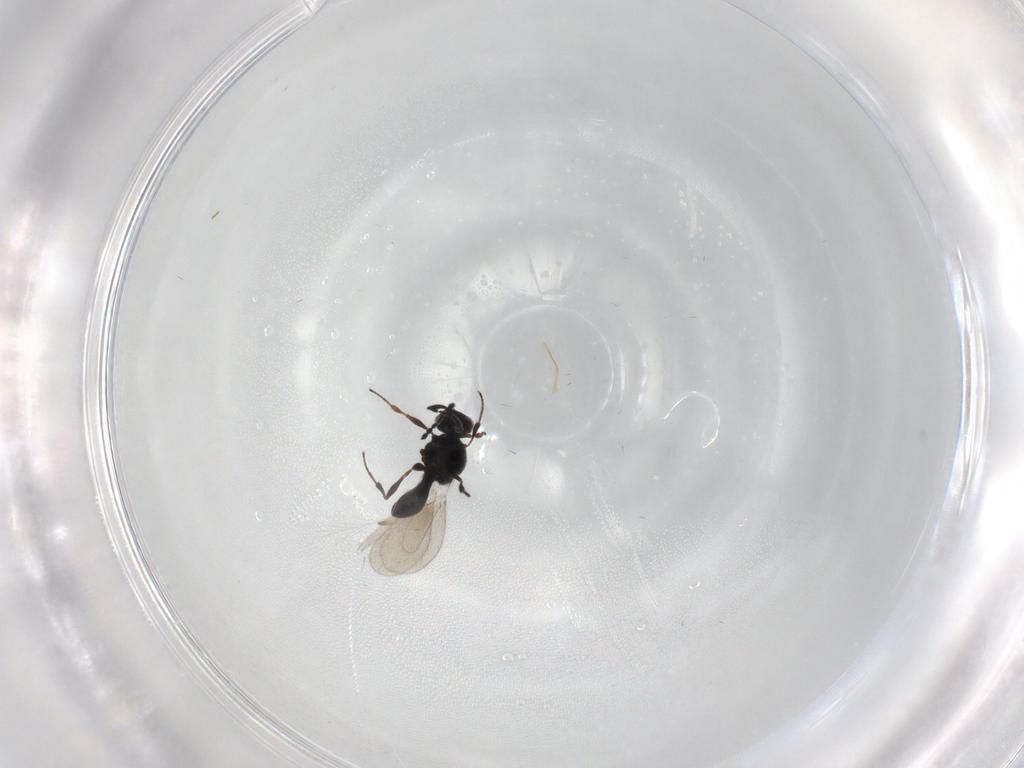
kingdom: Animalia
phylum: Arthropoda
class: Insecta
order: Hymenoptera
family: Platygastridae
